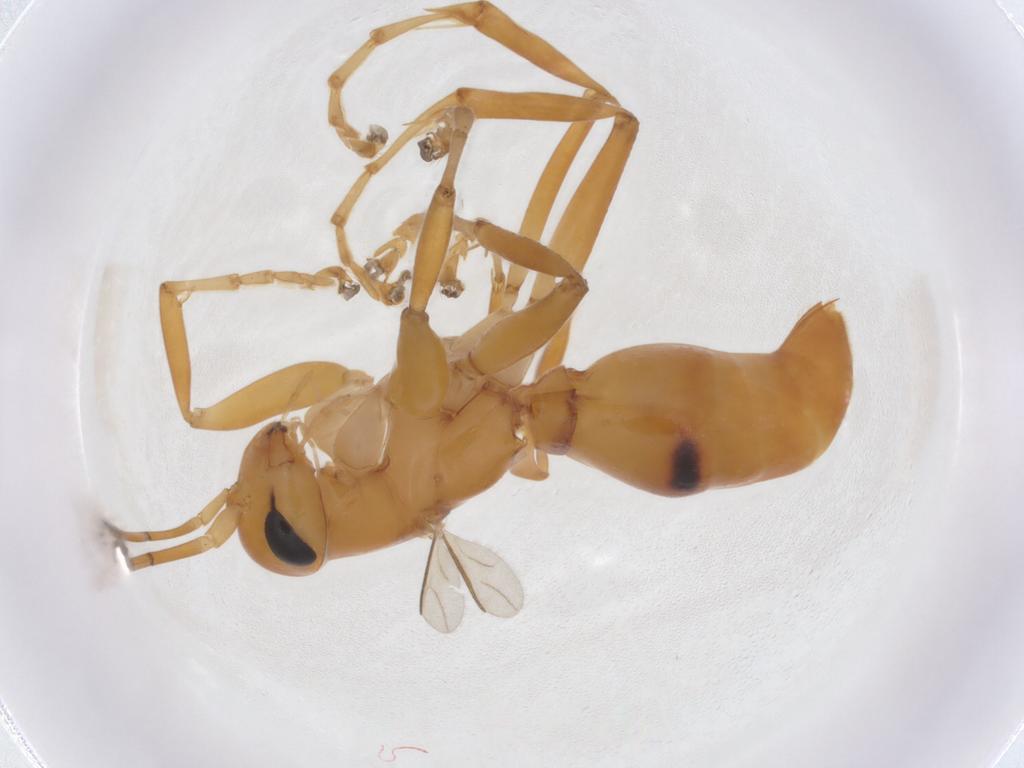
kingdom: Animalia
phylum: Arthropoda
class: Insecta
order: Hymenoptera
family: Rhopalosomatidae
